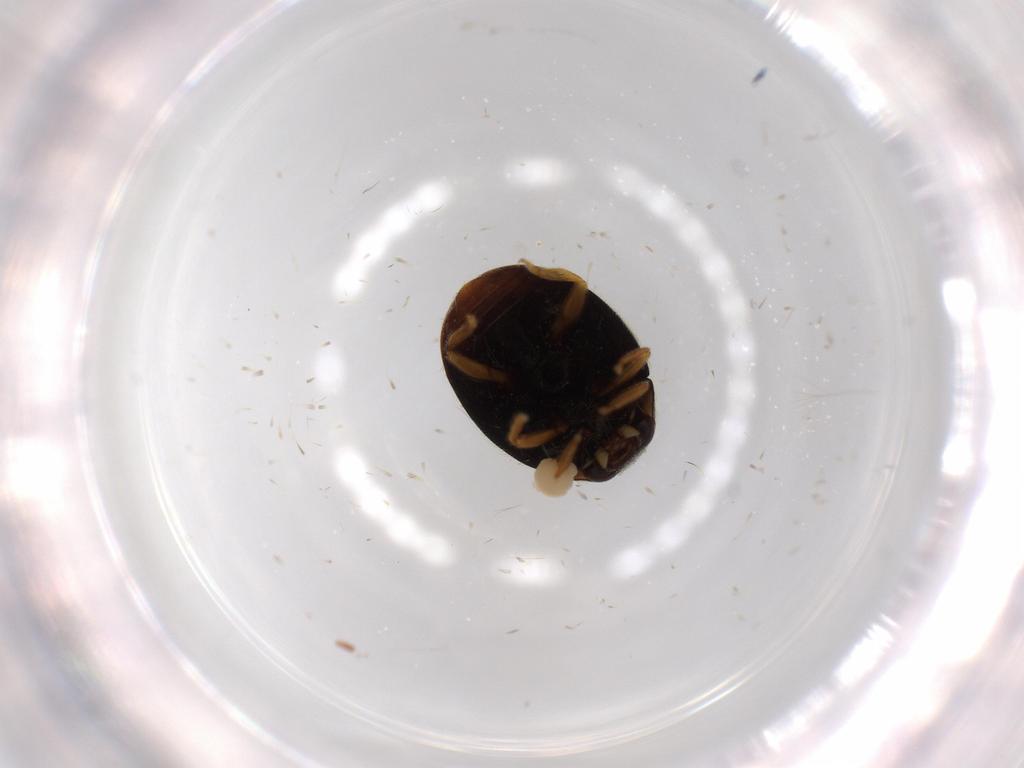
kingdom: Animalia
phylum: Arthropoda
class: Insecta
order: Coleoptera
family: Coccinellidae
